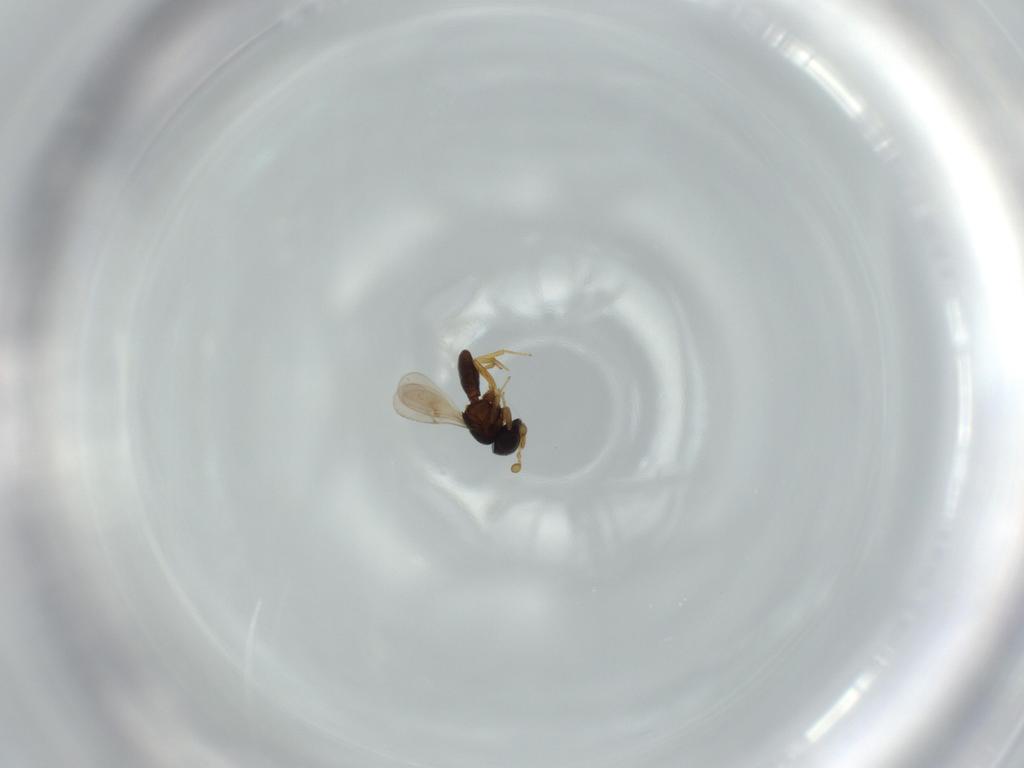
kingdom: Animalia
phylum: Arthropoda
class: Insecta
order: Hymenoptera
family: Scelionidae
